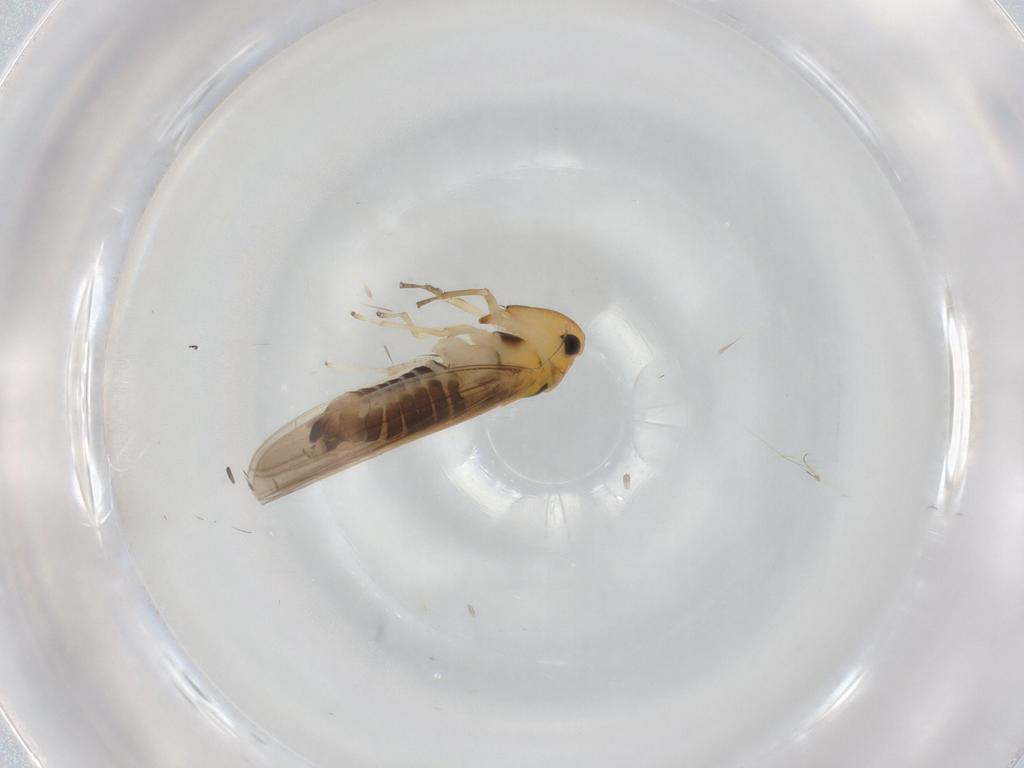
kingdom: Animalia
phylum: Arthropoda
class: Insecta
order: Hemiptera
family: Cicadellidae
